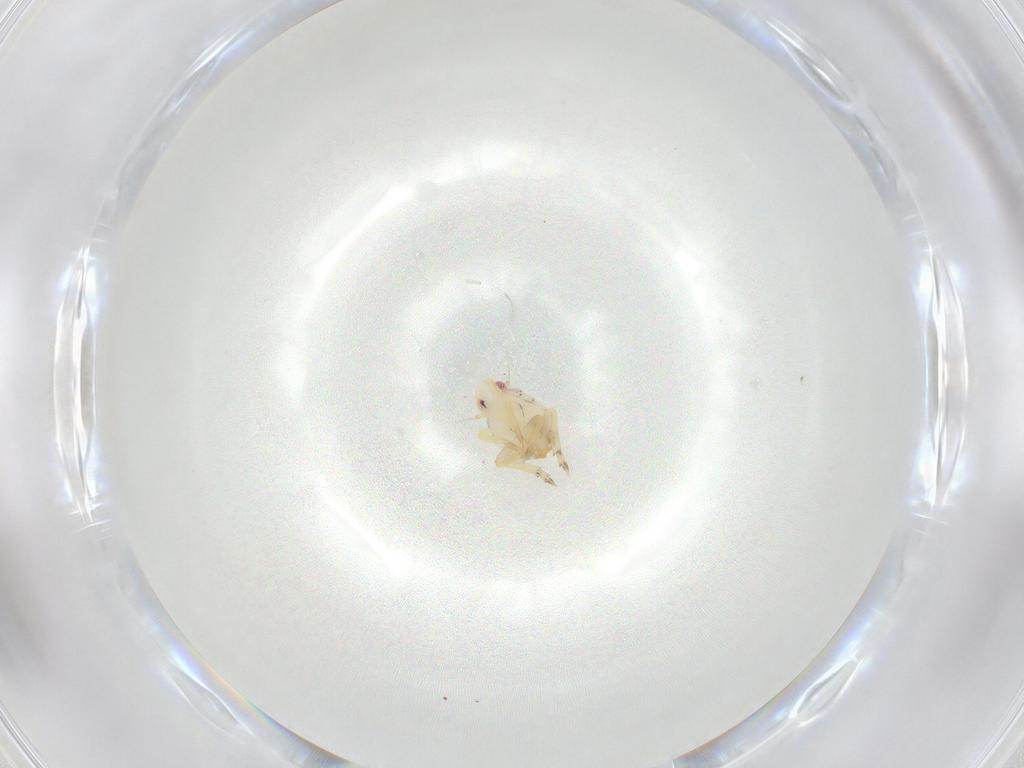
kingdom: Animalia
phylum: Arthropoda
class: Insecta
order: Hemiptera
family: Flatidae
